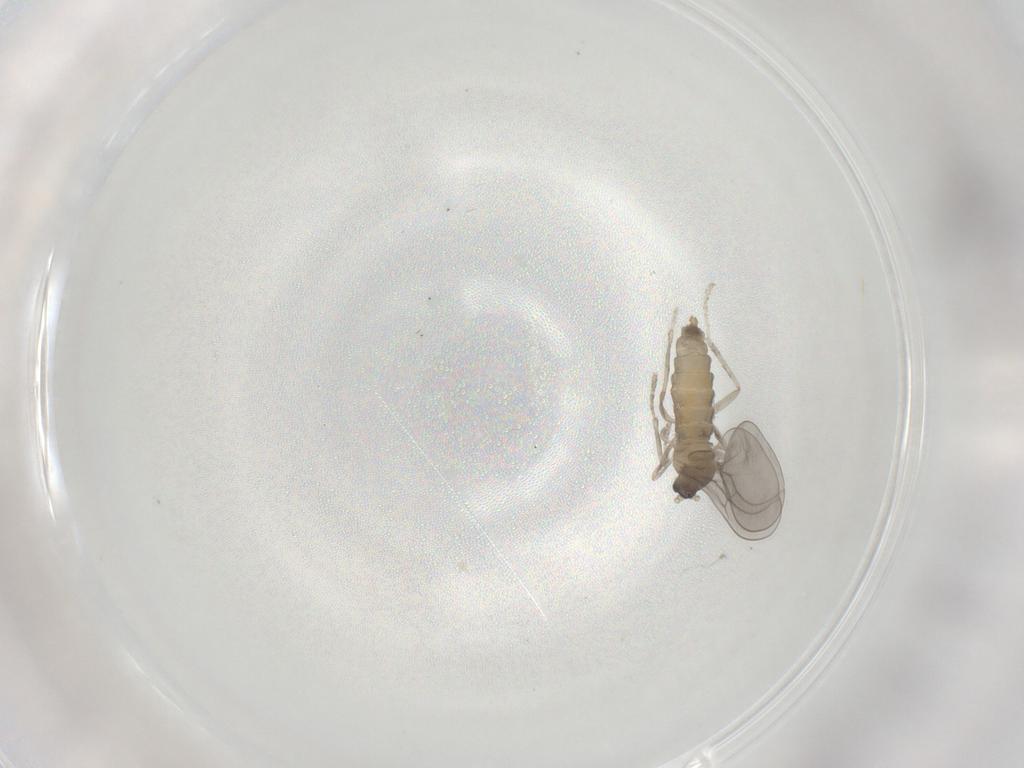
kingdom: Animalia
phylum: Arthropoda
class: Insecta
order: Diptera
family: Cecidomyiidae
